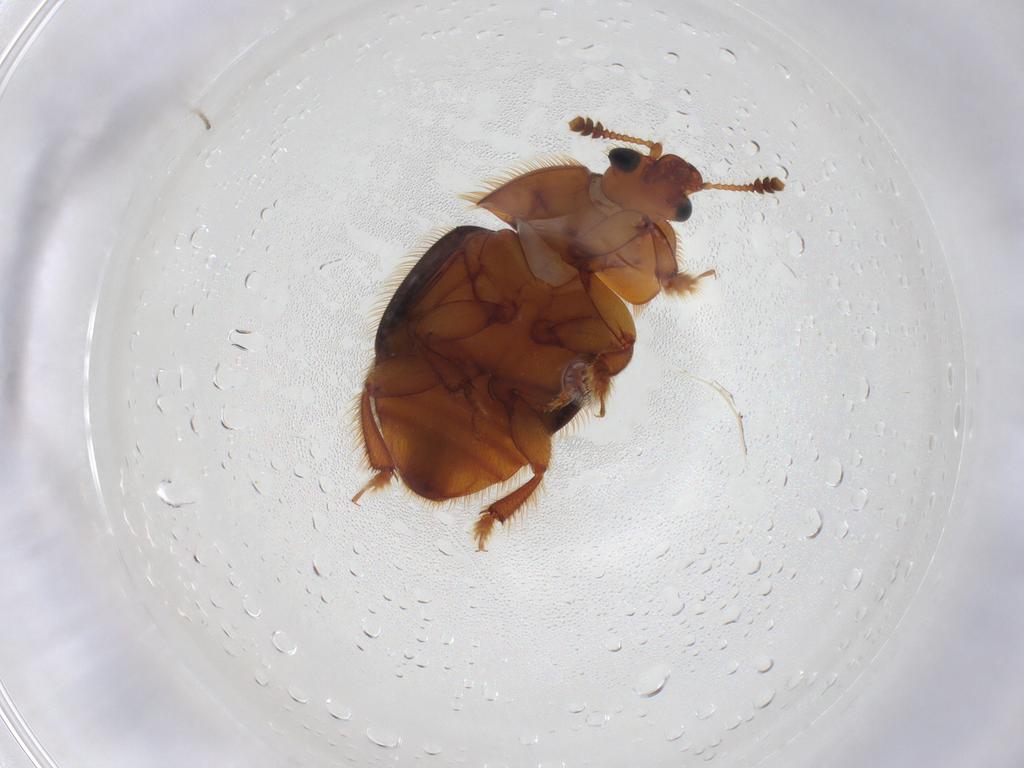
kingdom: Animalia
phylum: Arthropoda
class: Insecta
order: Coleoptera
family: Nitidulidae
